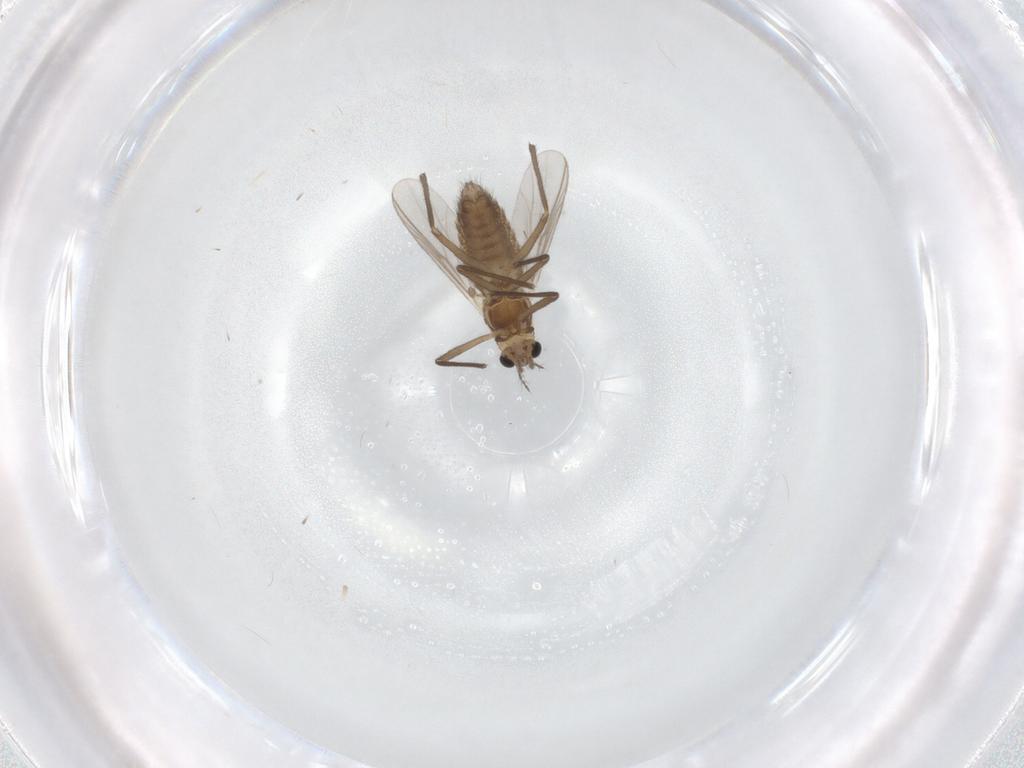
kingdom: Animalia
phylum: Arthropoda
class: Insecta
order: Diptera
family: Chironomidae
